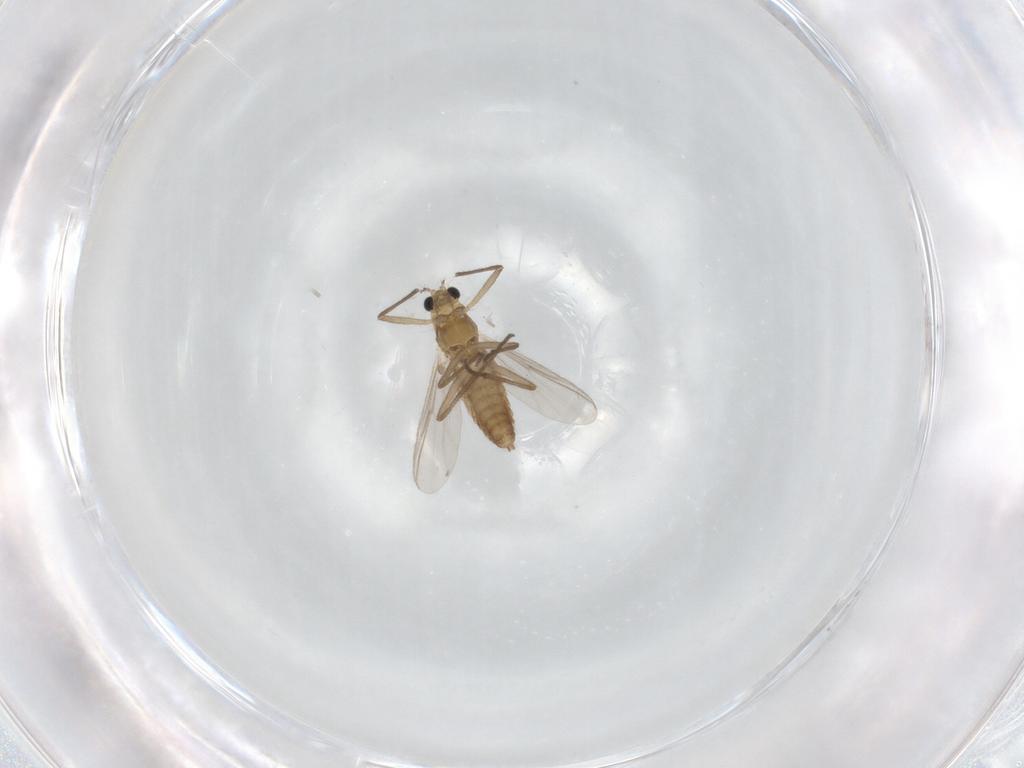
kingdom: Animalia
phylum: Arthropoda
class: Insecta
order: Diptera
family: Chironomidae
